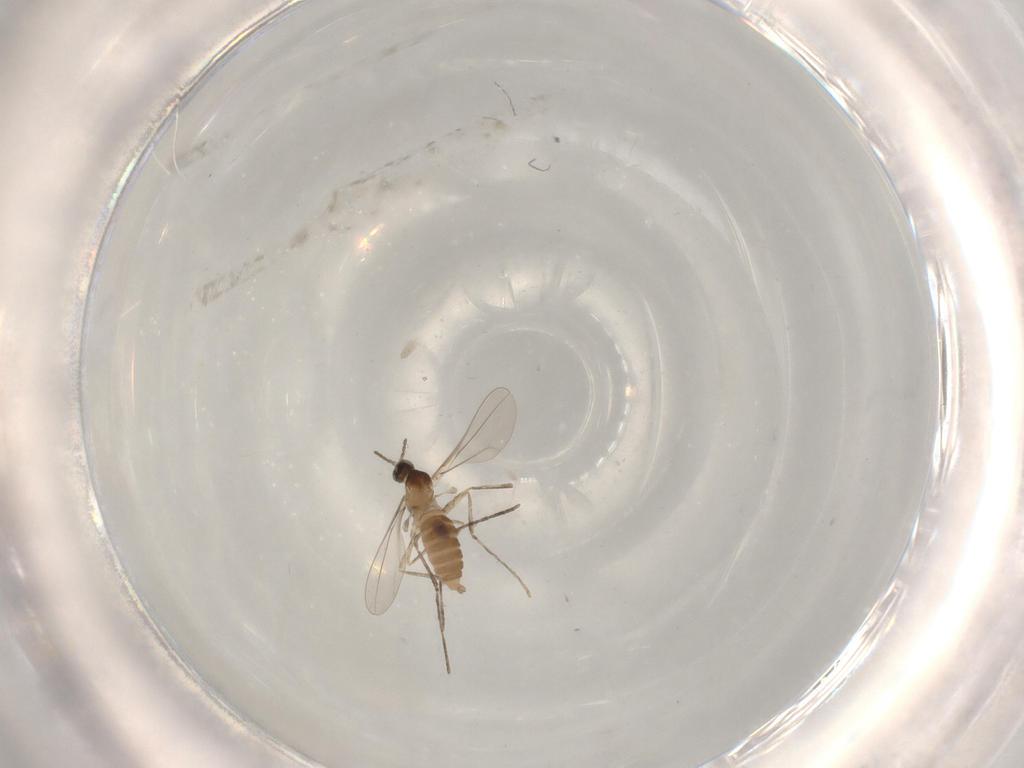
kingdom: Animalia
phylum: Arthropoda
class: Insecta
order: Diptera
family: Cecidomyiidae
